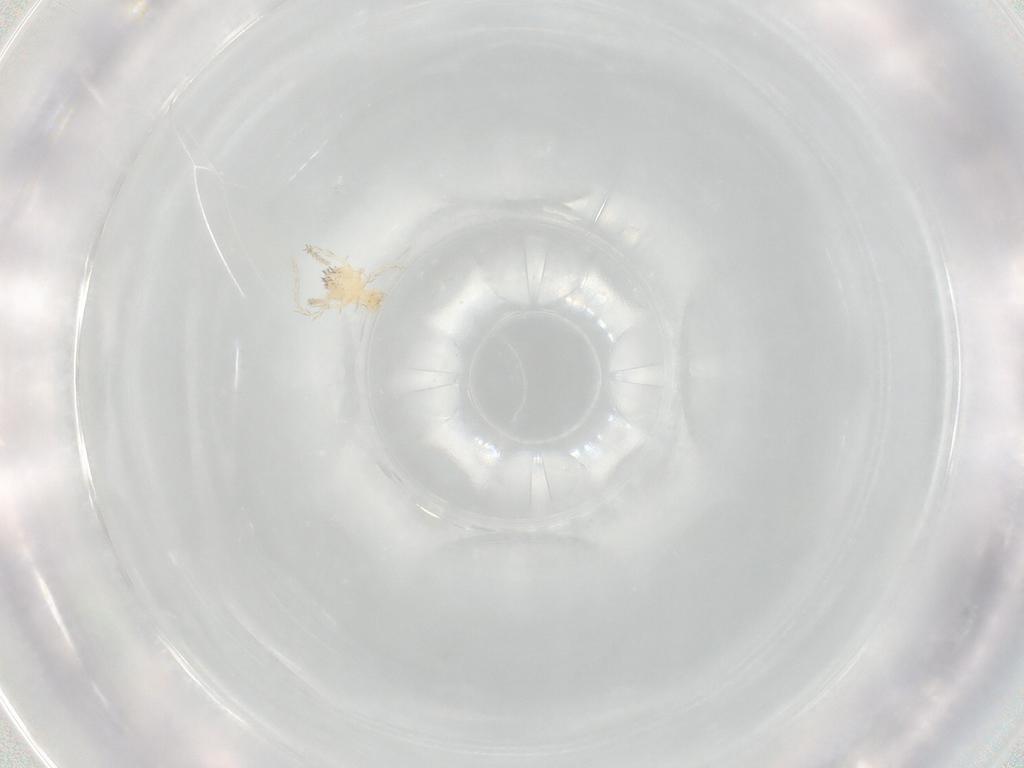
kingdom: Animalia
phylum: Arthropoda
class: Arachnida
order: Trombidiformes
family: Erythraeidae
